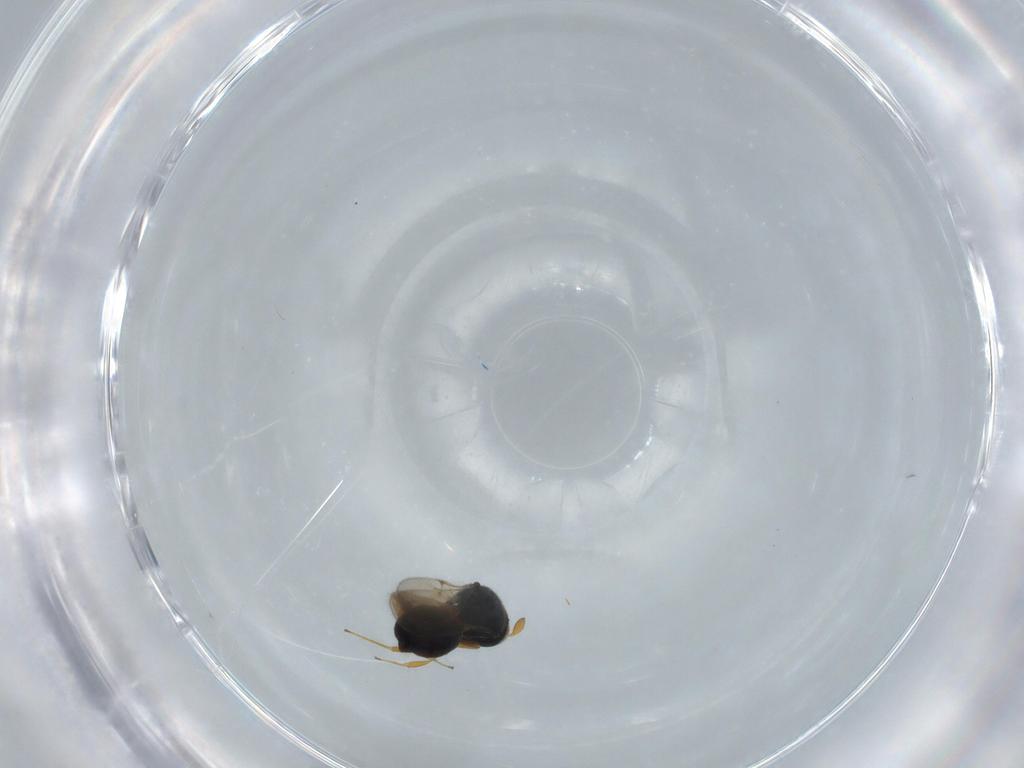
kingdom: Animalia
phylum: Arthropoda
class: Insecta
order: Hymenoptera
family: Scelionidae
